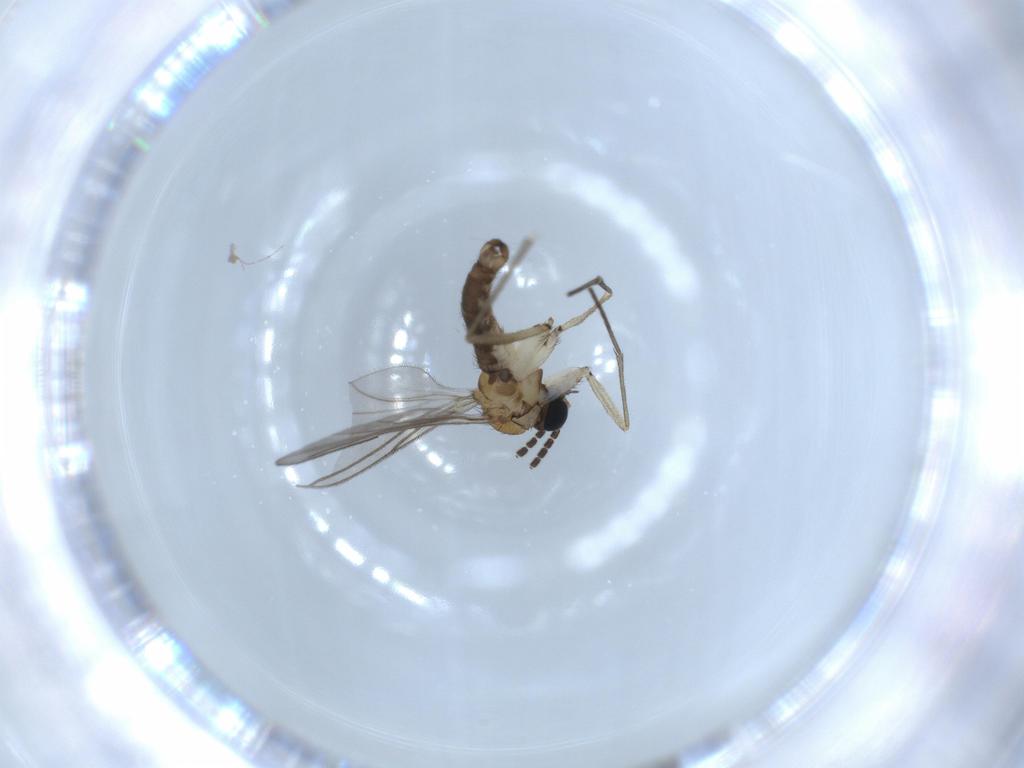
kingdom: Animalia
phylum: Arthropoda
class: Insecta
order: Diptera
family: Sciaridae
